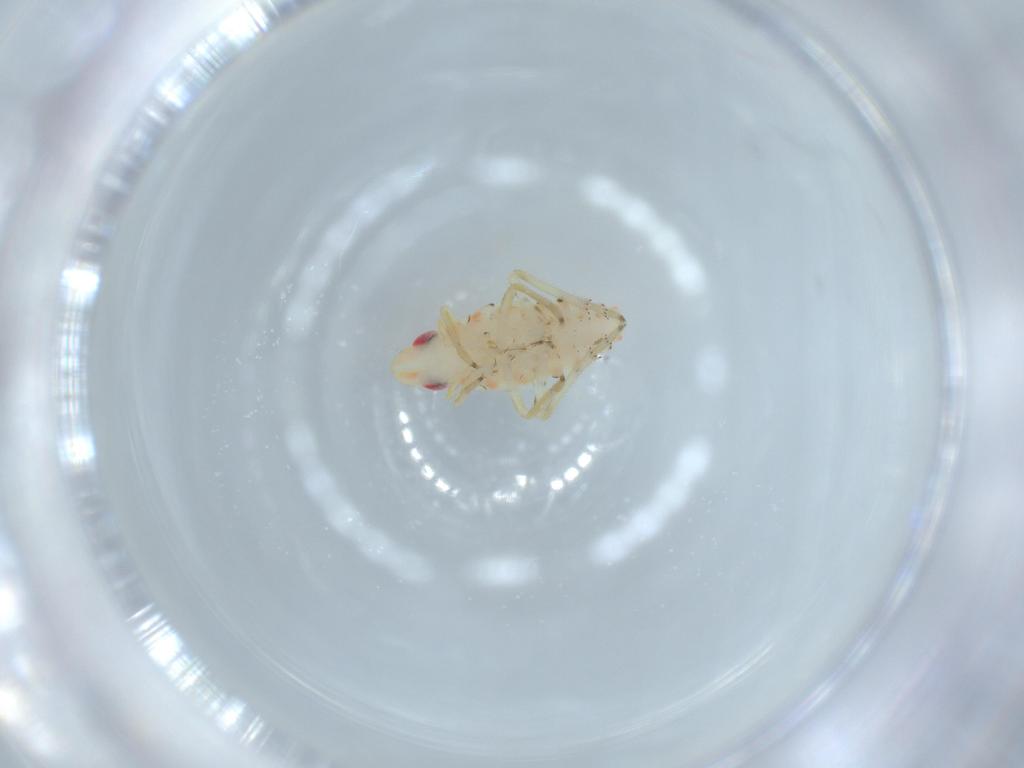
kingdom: Animalia
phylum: Arthropoda
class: Insecta
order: Hemiptera
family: Tropiduchidae
